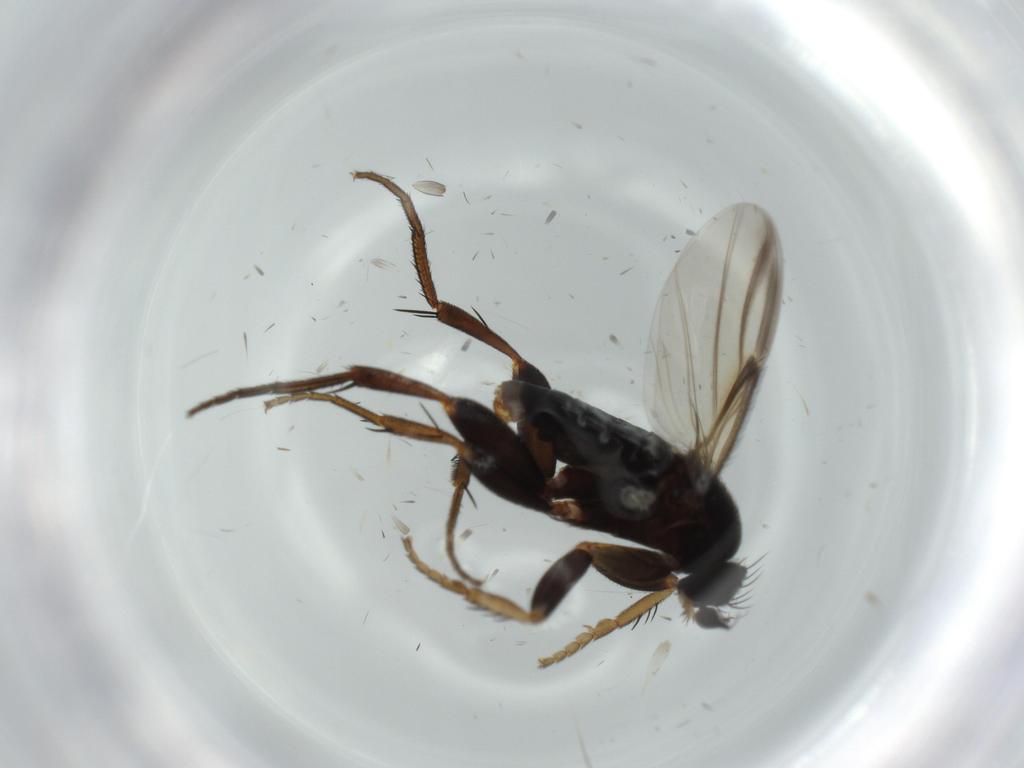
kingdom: Animalia
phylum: Arthropoda
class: Insecta
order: Diptera
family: Phoridae
